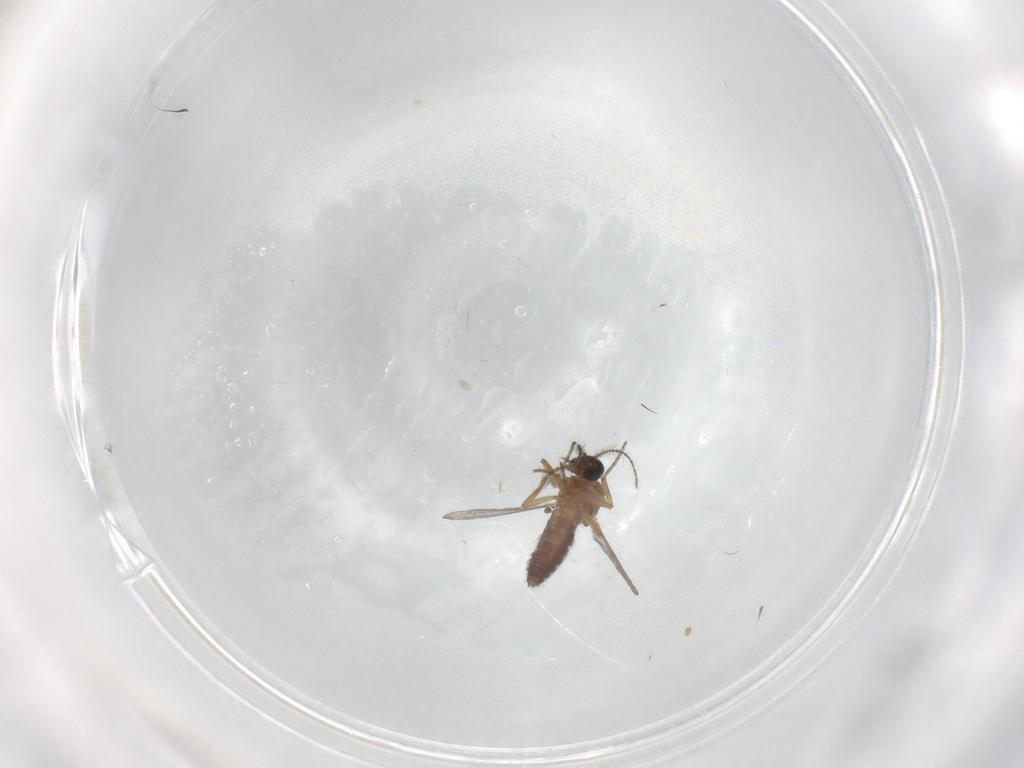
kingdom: Animalia
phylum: Arthropoda
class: Insecta
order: Diptera
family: Ceratopogonidae
